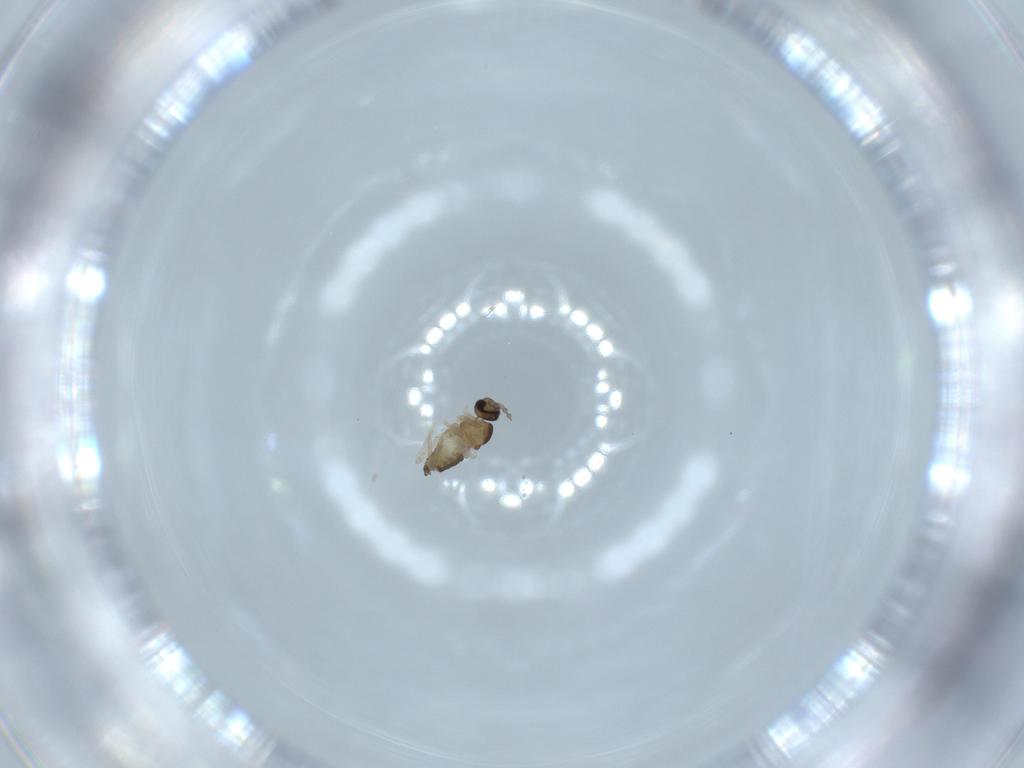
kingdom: Animalia
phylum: Arthropoda
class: Insecta
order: Diptera
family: Cecidomyiidae
